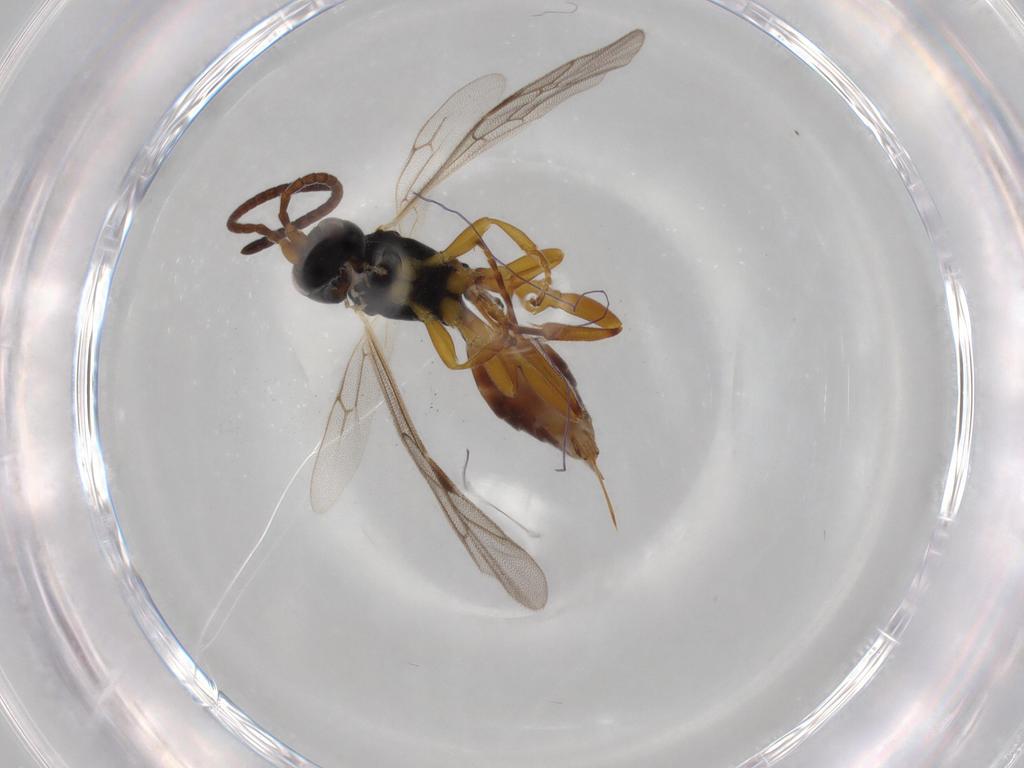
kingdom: Animalia
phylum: Arthropoda
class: Insecta
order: Hymenoptera
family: Ichneumonidae
